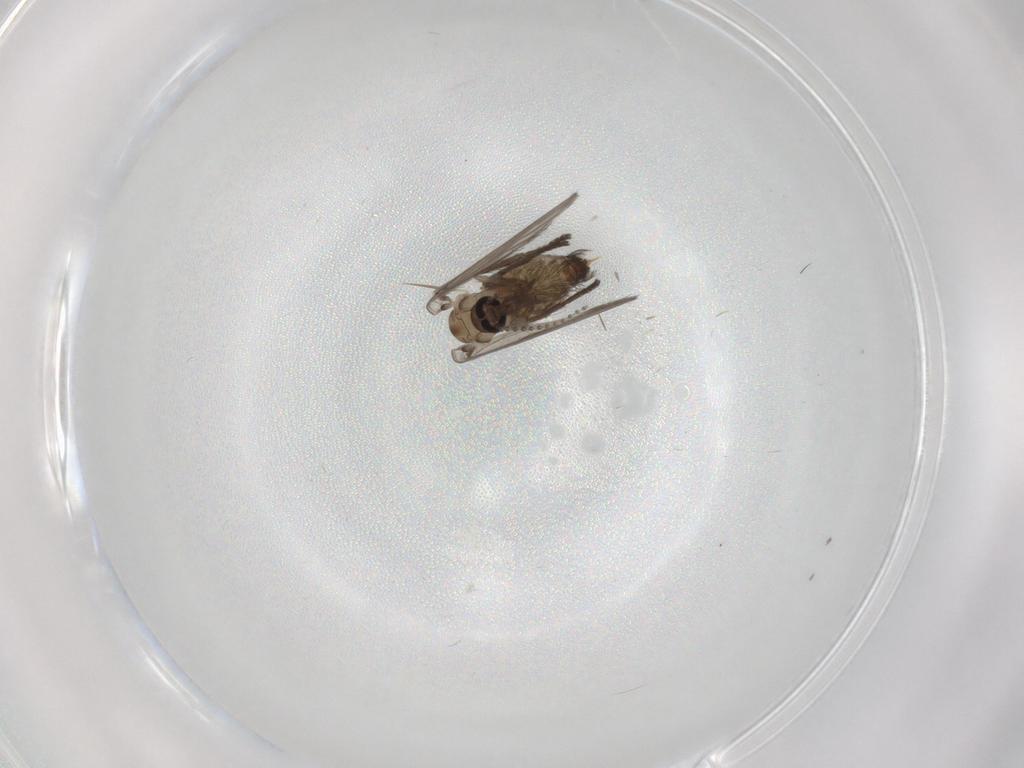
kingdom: Animalia
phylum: Arthropoda
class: Insecta
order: Diptera
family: Psychodidae
